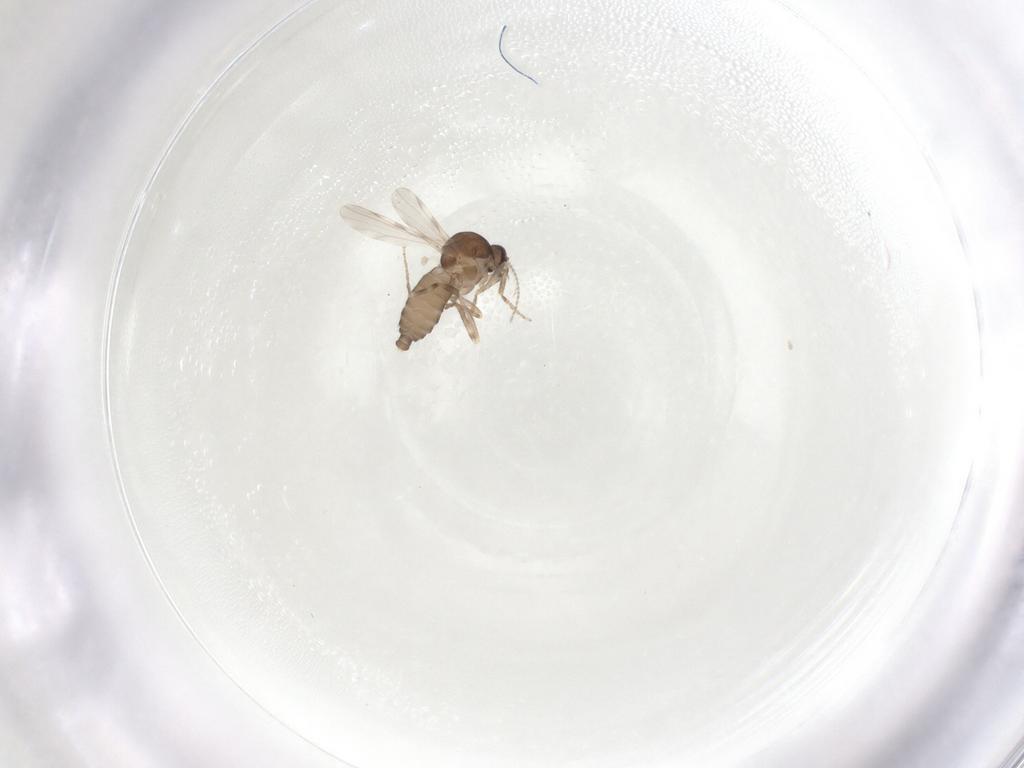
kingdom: Animalia
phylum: Arthropoda
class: Insecta
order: Diptera
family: Ceratopogonidae
